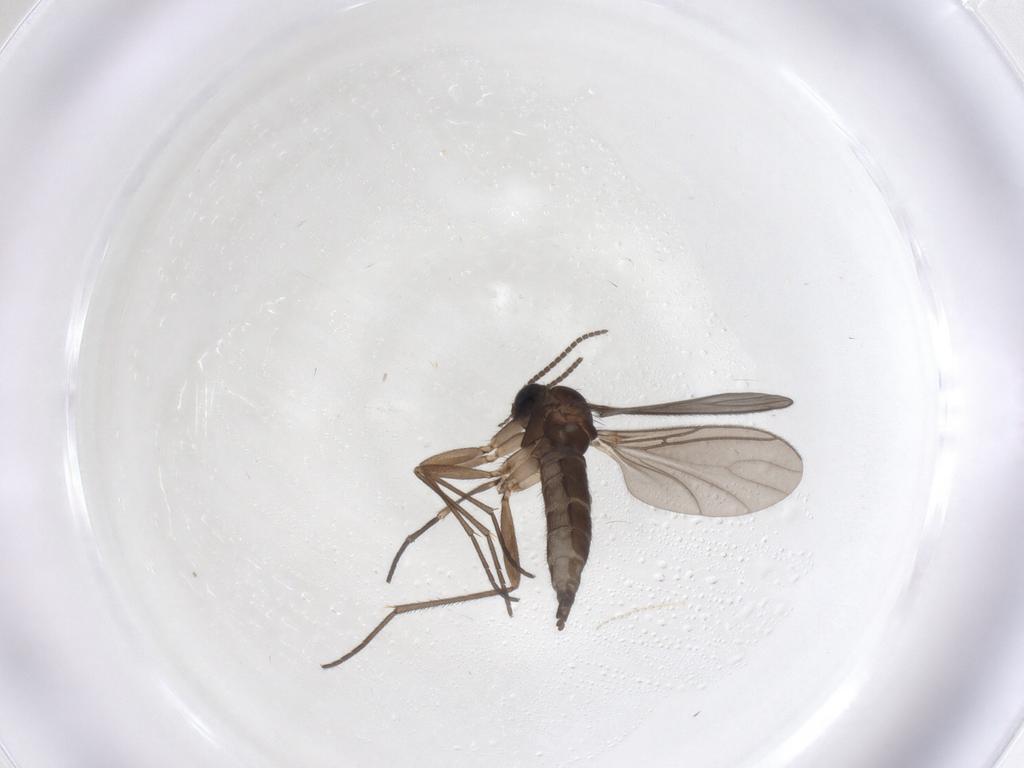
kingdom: Animalia
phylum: Arthropoda
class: Insecta
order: Diptera
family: Sciaridae
